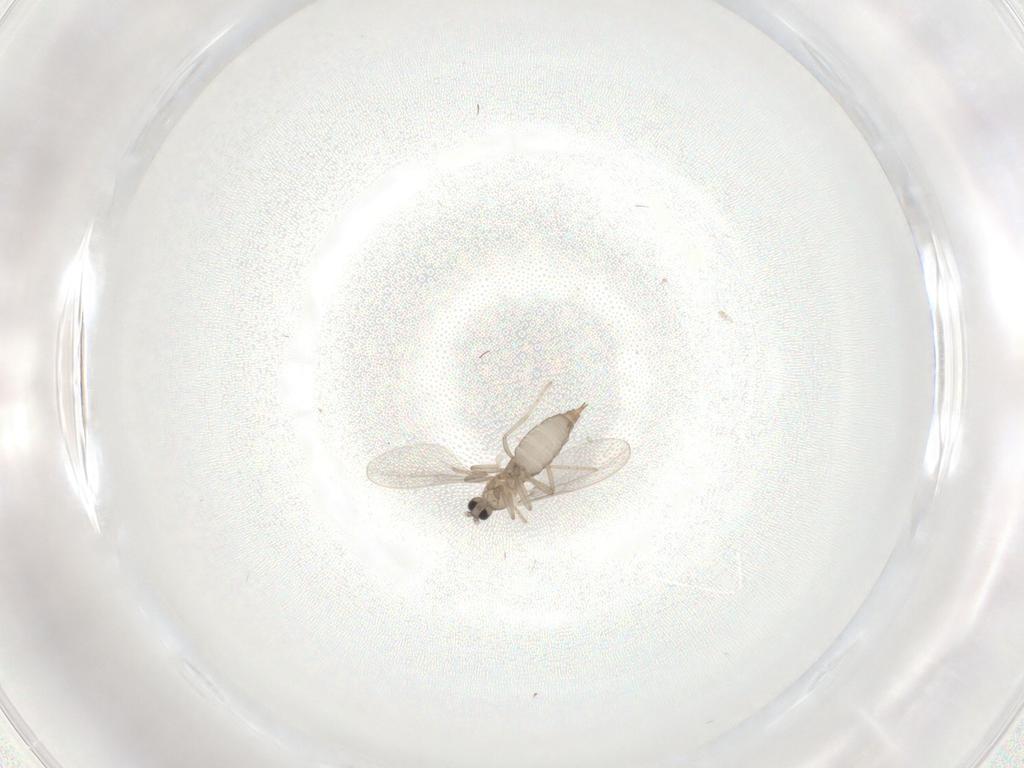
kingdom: Animalia
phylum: Arthropoda
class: Insecta
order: Diptera
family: Cecidomyiidae
